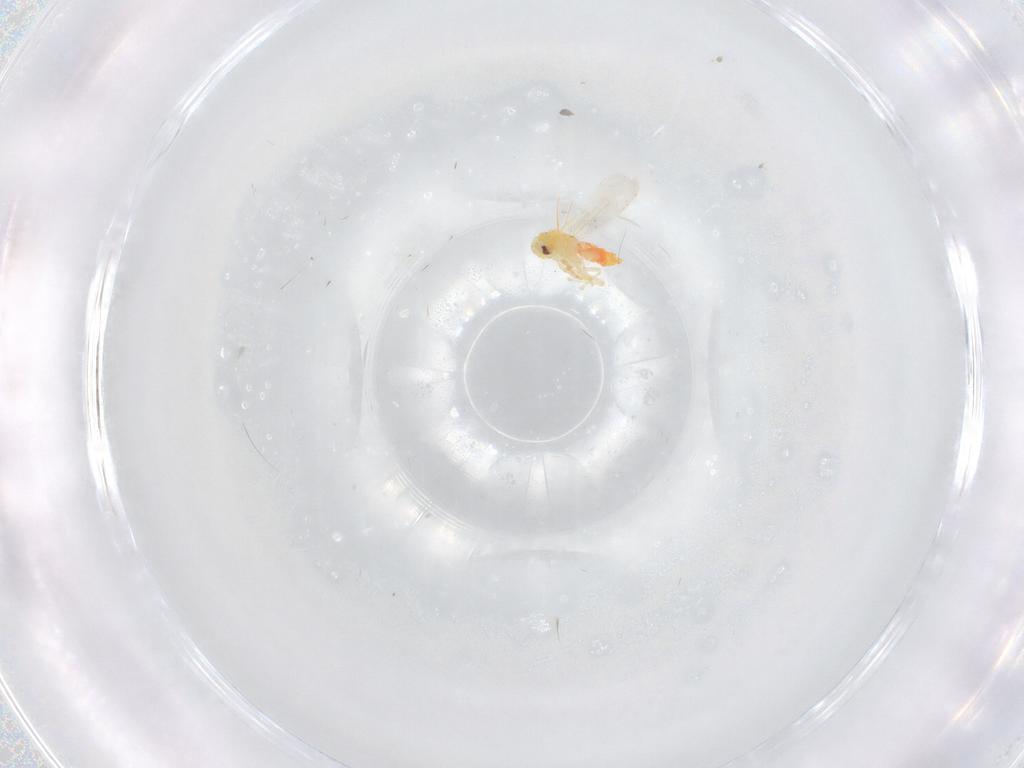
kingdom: Animalia
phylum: Arthropoda
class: Insecta
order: Hemiptera
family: Aleyrodidae
